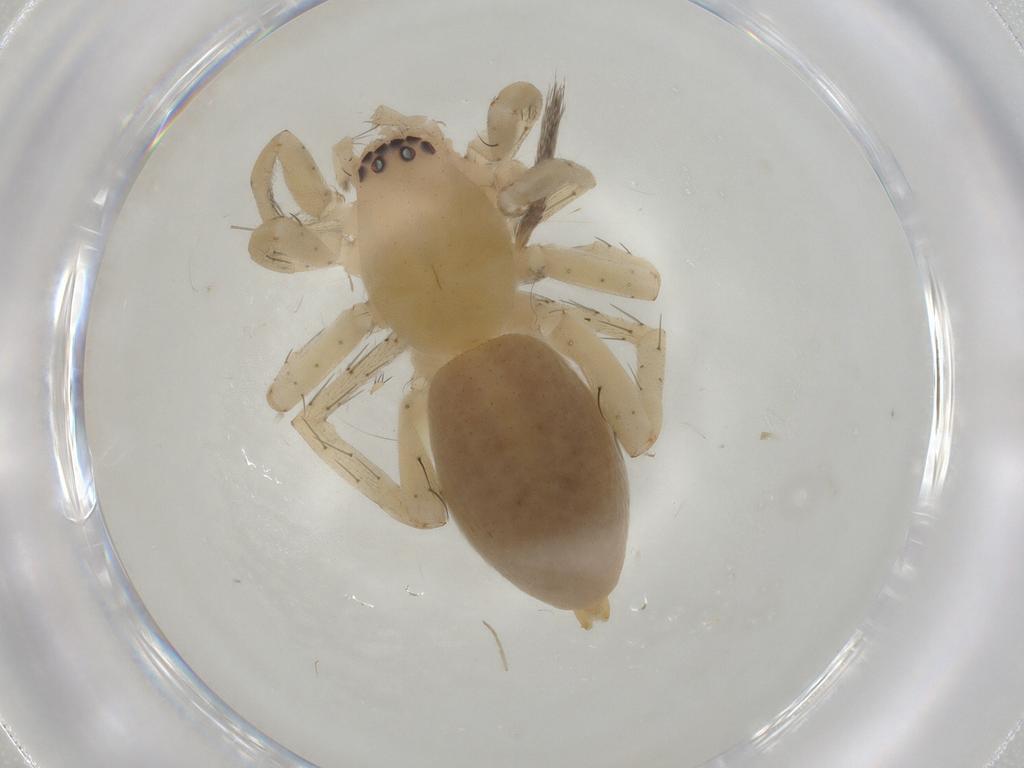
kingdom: Animalia
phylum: Arthropoda
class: Arachnida
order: Araneae
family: Clubionidae
